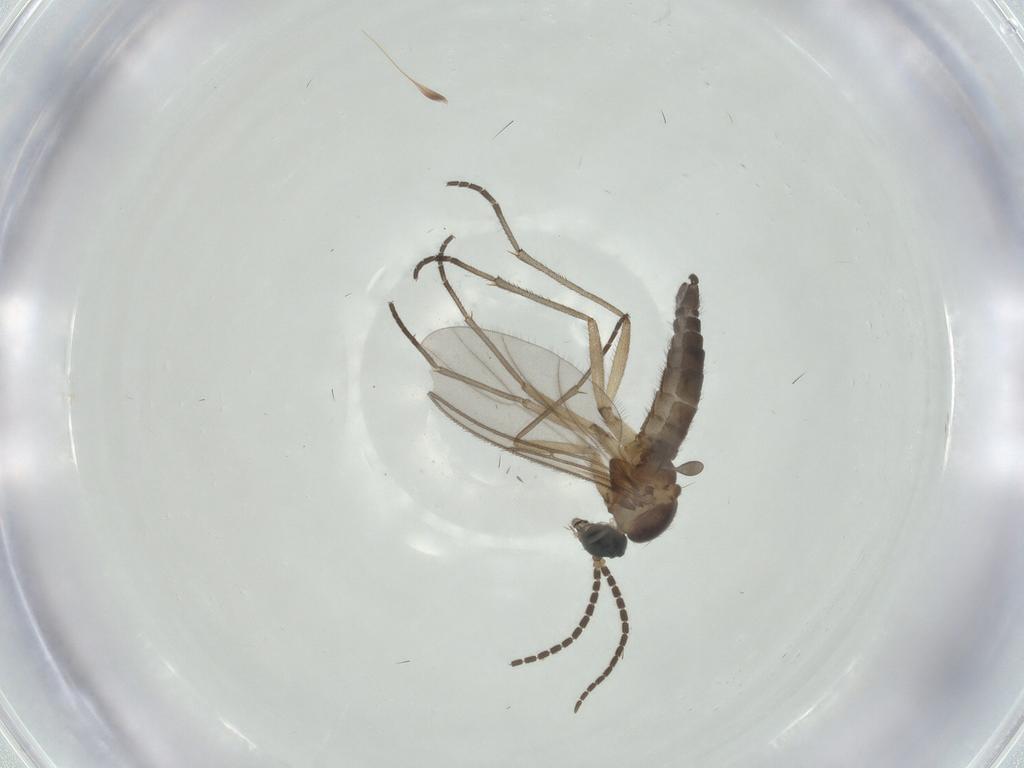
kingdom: Animalia
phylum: Arthropoda
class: Insecta
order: Diptera
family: Sciaridae
